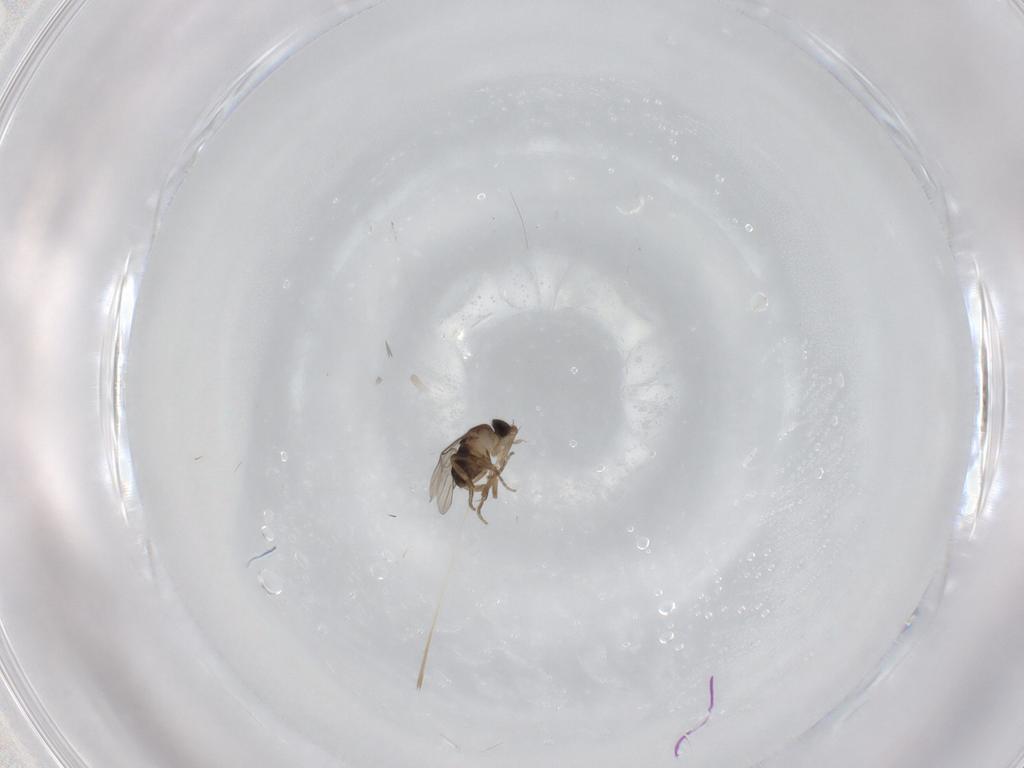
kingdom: Animalia
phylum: Arthropoda
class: Insecta
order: Diptera
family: Phoridae
